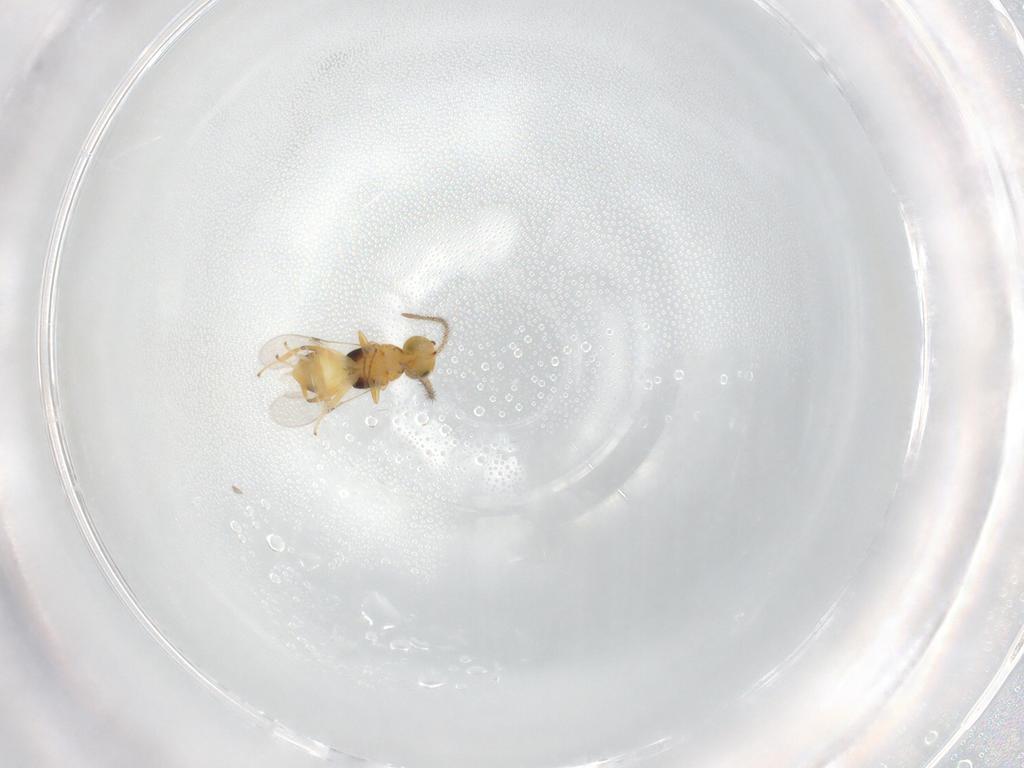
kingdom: Animalia
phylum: Arthropoda
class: Insecta
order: Hymenoptera
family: Encyrtidae
